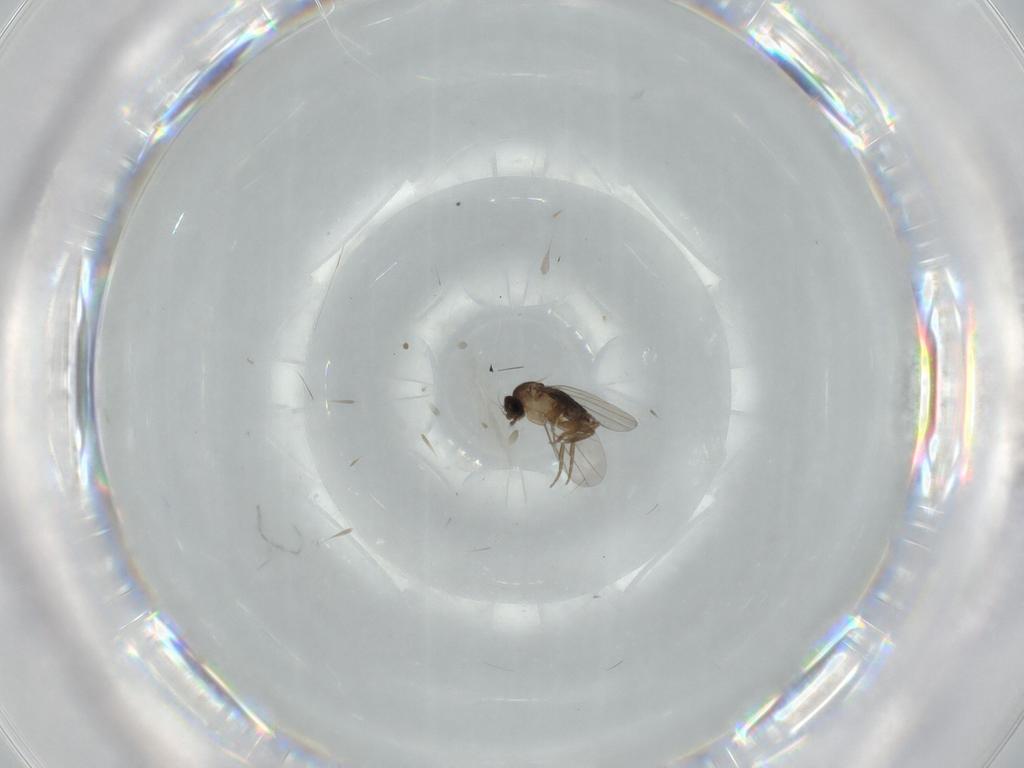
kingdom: Animalia
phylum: Arthropoda
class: Insecta
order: Diptera
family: Cecidomyiidae
